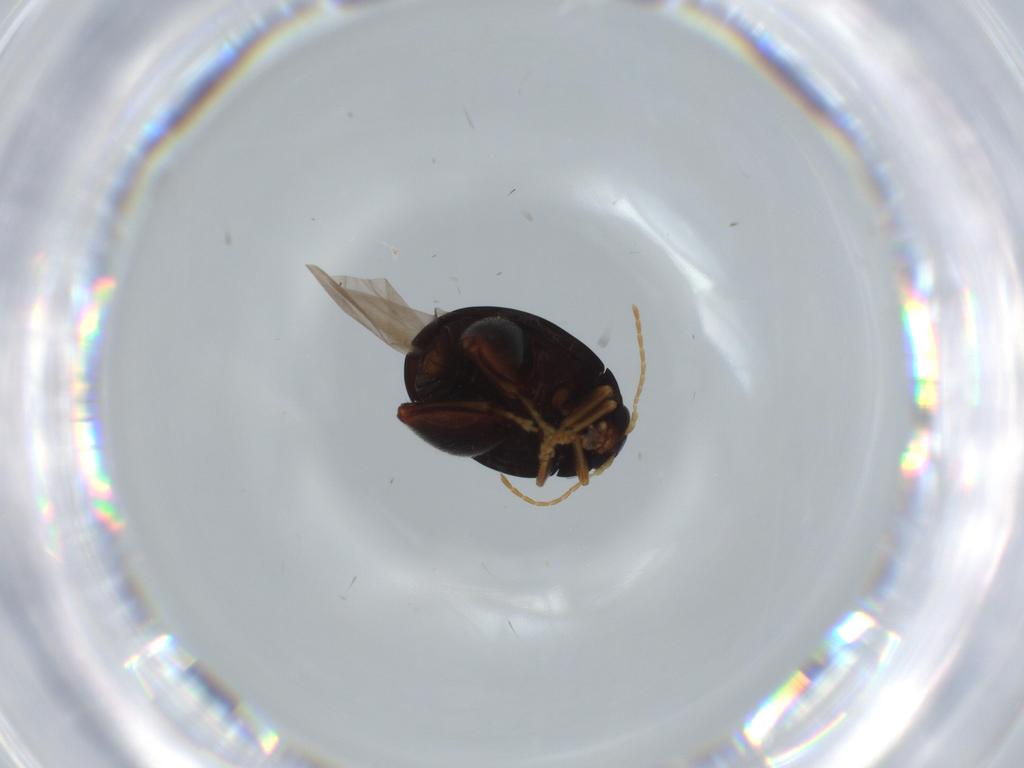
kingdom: Animalia
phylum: Arthropoda
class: Insecta
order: Coleoptera
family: Chrysomelidae
